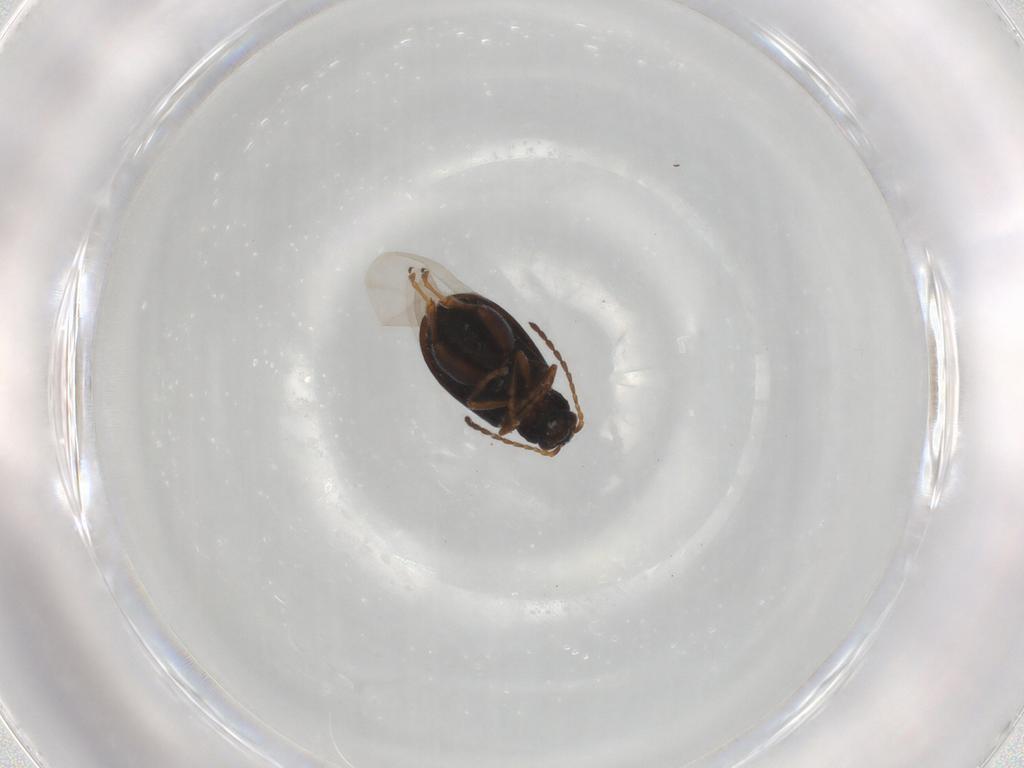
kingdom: Animalia
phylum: Arthropoda
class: Insecta
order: Coleoptera
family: Chrysomelidae
